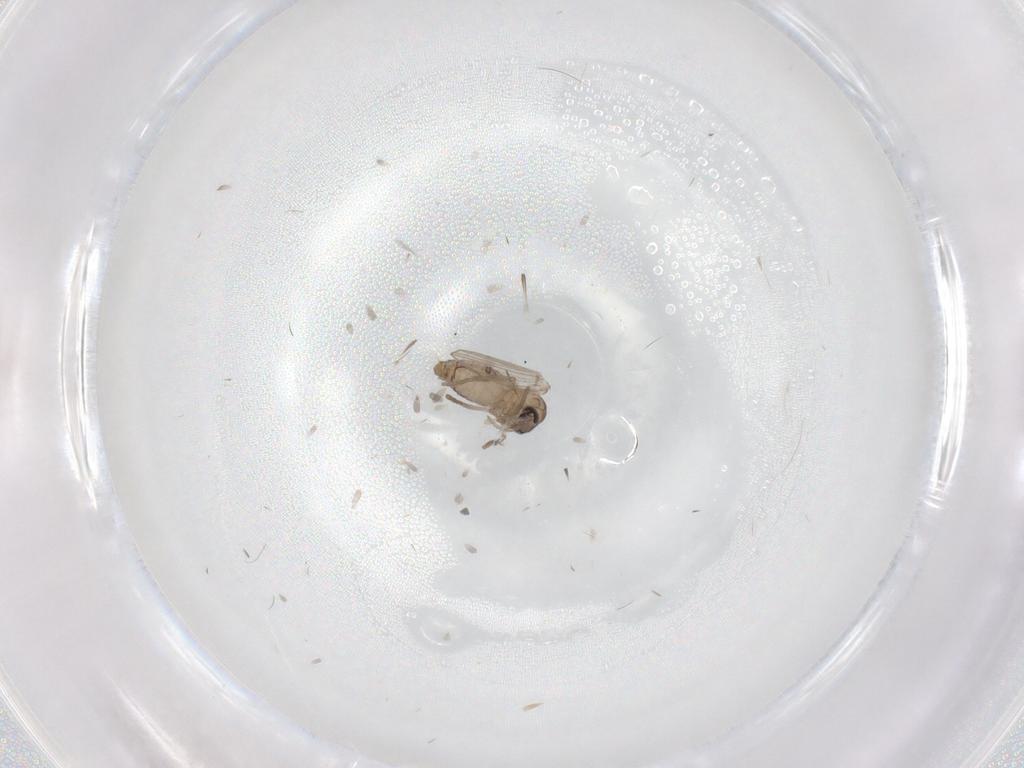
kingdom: Animalia
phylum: Arthropoda
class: Insecta
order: Diptera
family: Psychodidae
